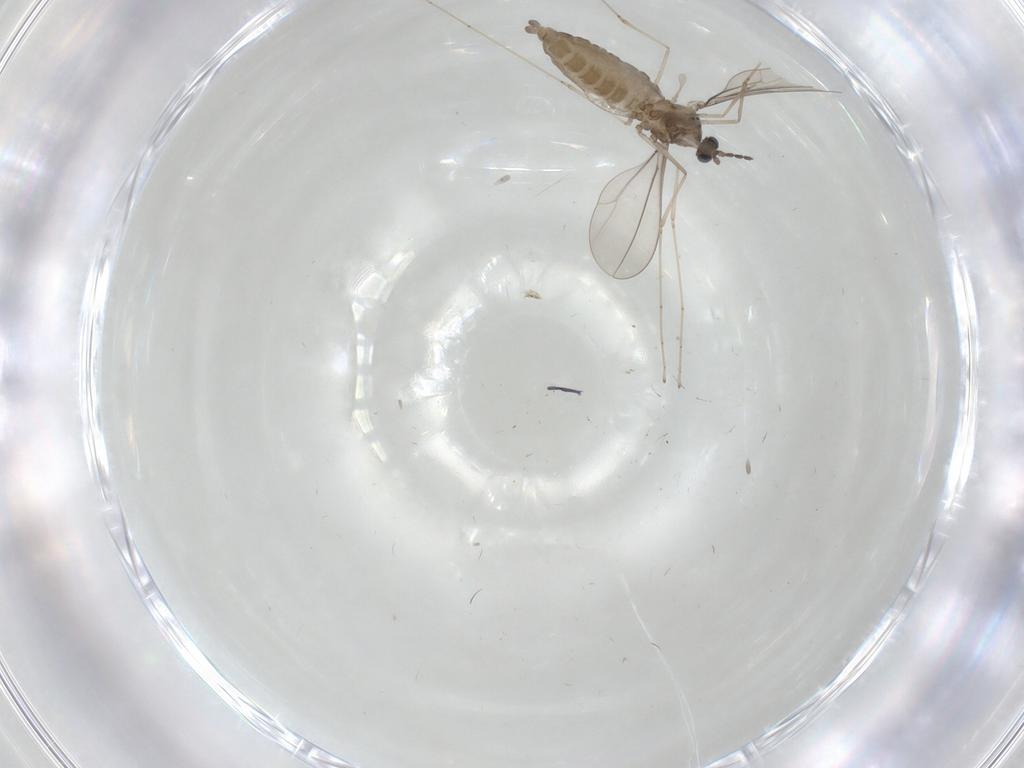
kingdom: Animalia
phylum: Arthropoda
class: Insecta
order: Diptera
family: Cecidomyiidae
